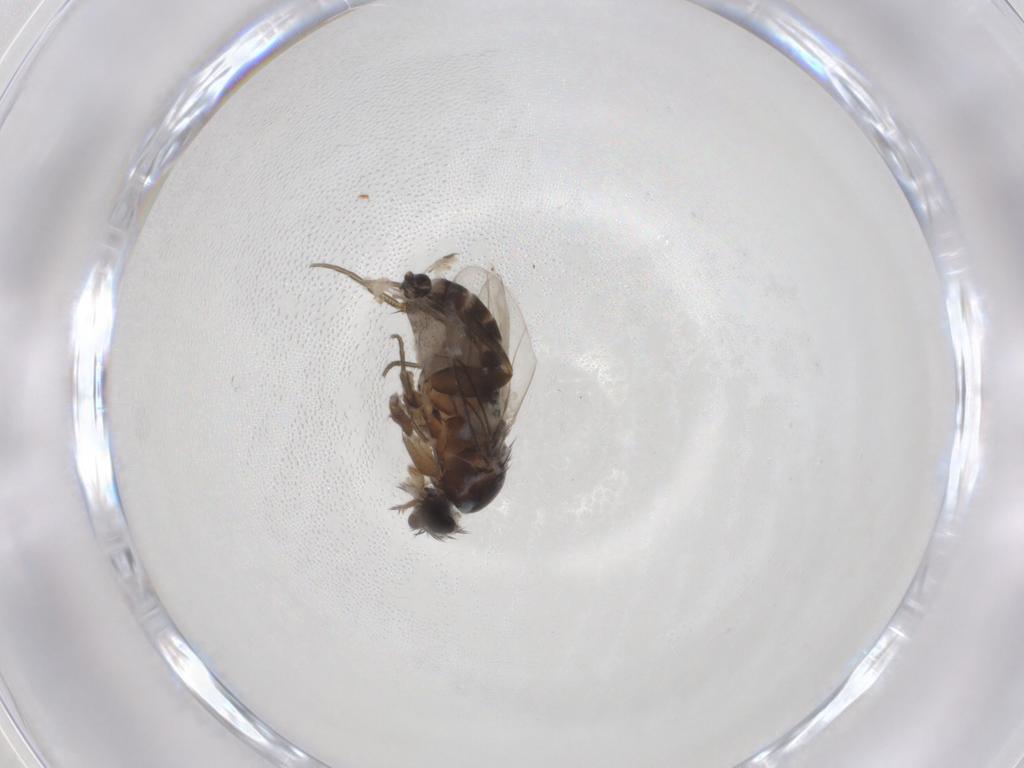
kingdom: Animalia
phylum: Arthropoda
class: Insecta
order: Diptera
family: Phoridae
